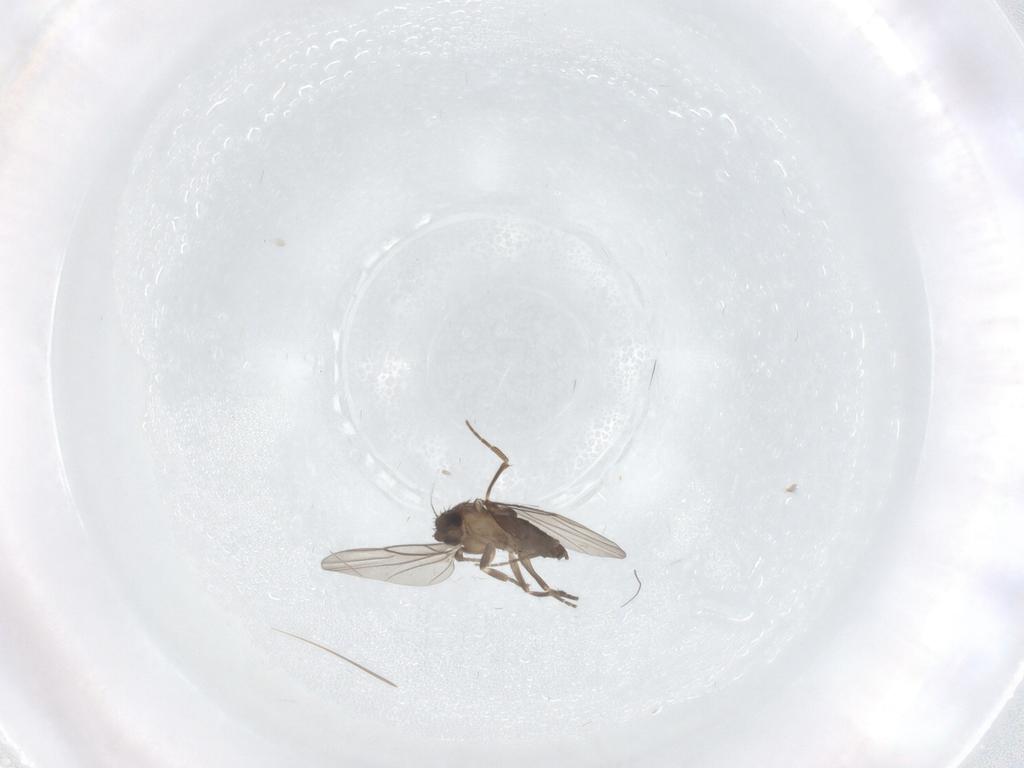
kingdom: Animalia
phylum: Arthropoda
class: Insecta
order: Diptera
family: Phoridae
